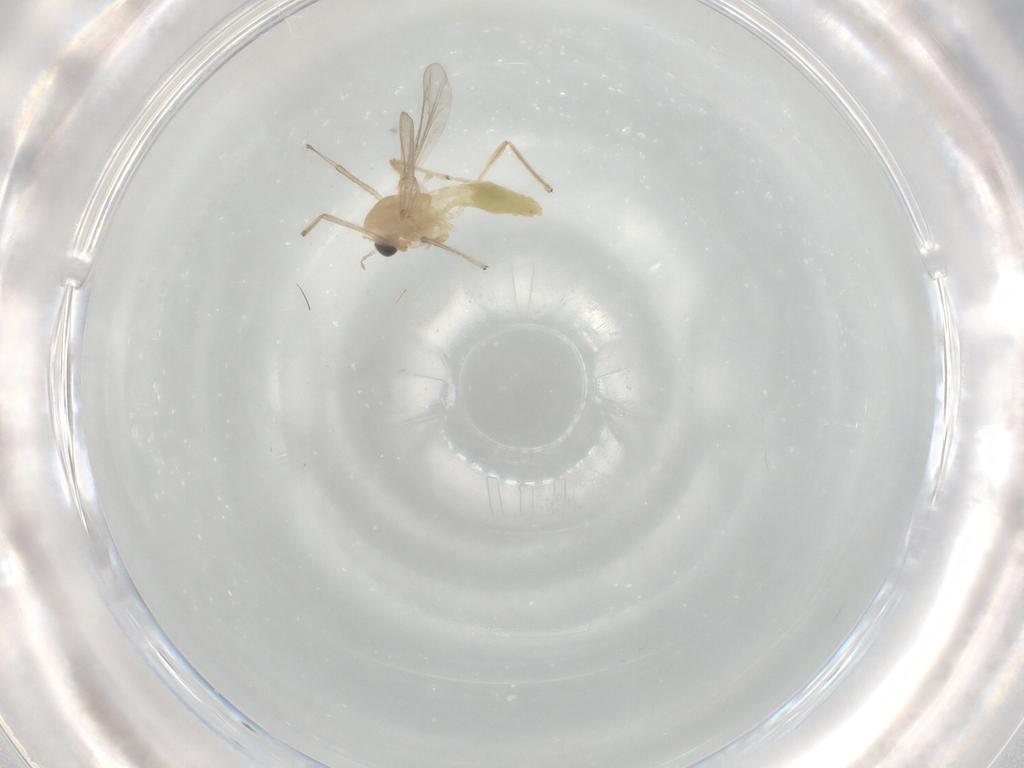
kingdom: Animalia
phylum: Arthropoda
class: Insecta
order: Diptera
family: Chironomidae
